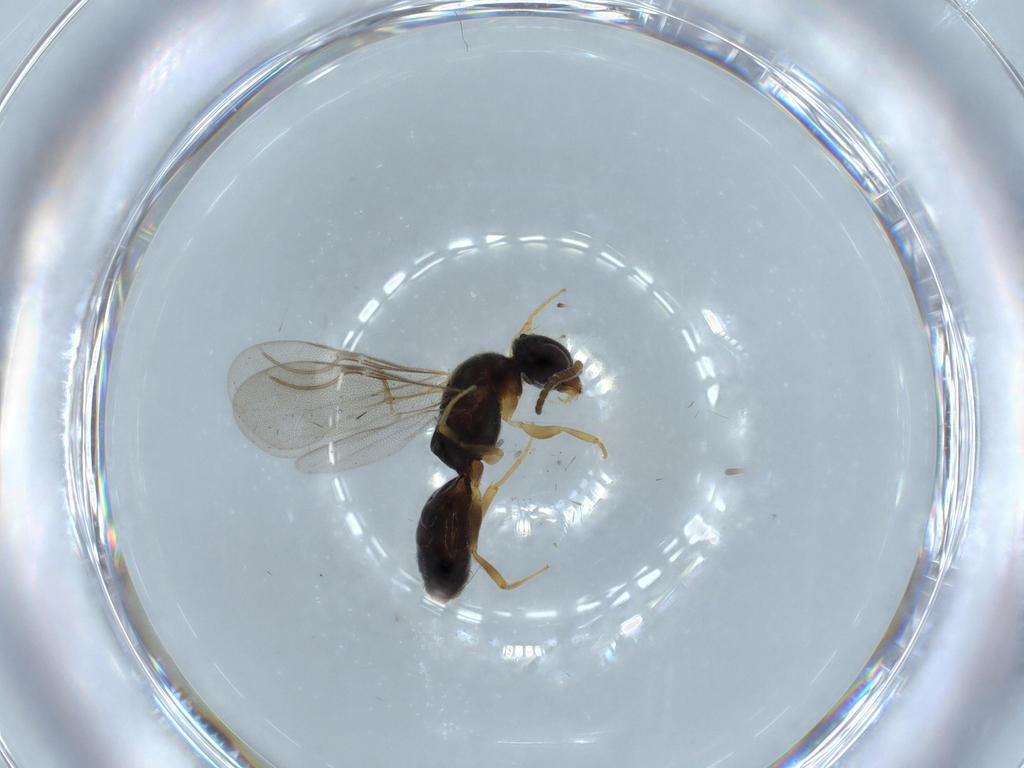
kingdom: Animalia
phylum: Arthropoda
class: Insecta
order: Hymenoptera
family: Bethylidae
